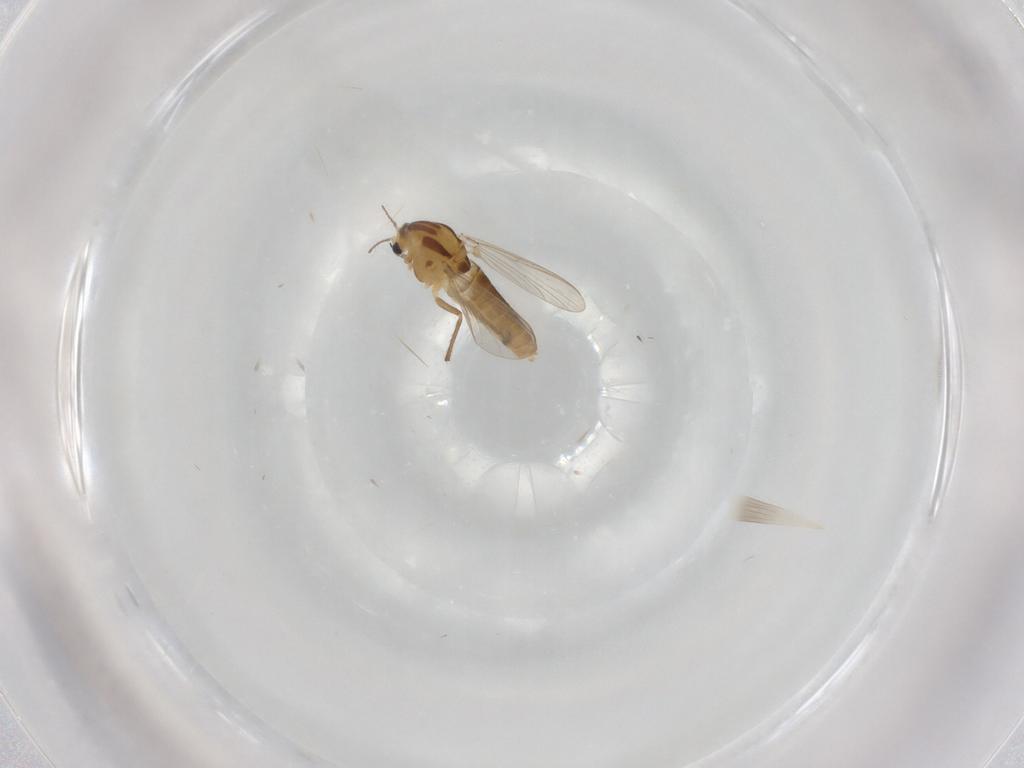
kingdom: Animalia
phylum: Arthropoda
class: Insecta
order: Diptera
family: Chironomidae
